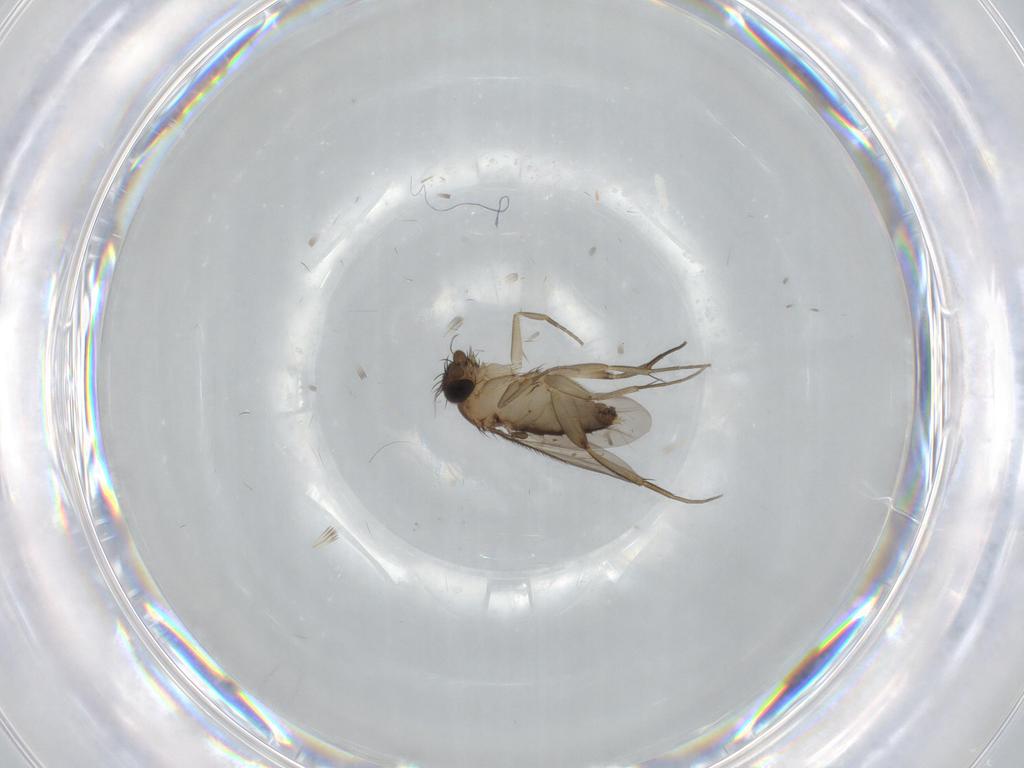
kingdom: Animalia
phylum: Arthropoda
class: Insecta
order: Diptera
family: Phoridae
